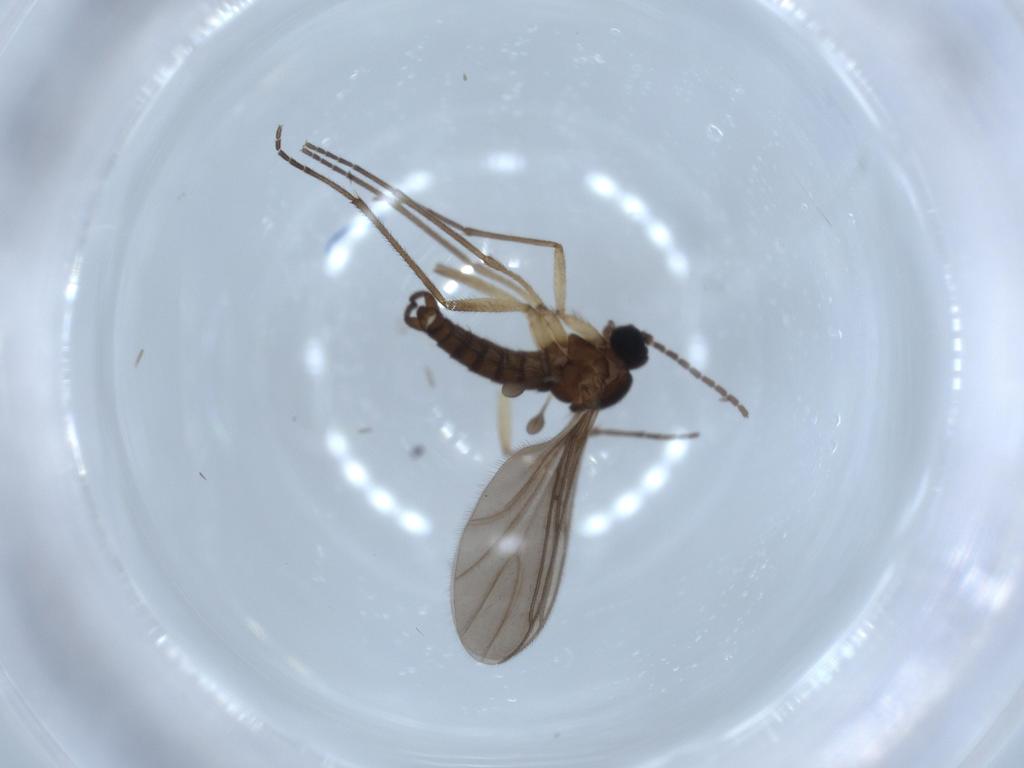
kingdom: Animalia
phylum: Arthropoda
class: Insecta
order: Diptera
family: Sciaridae
